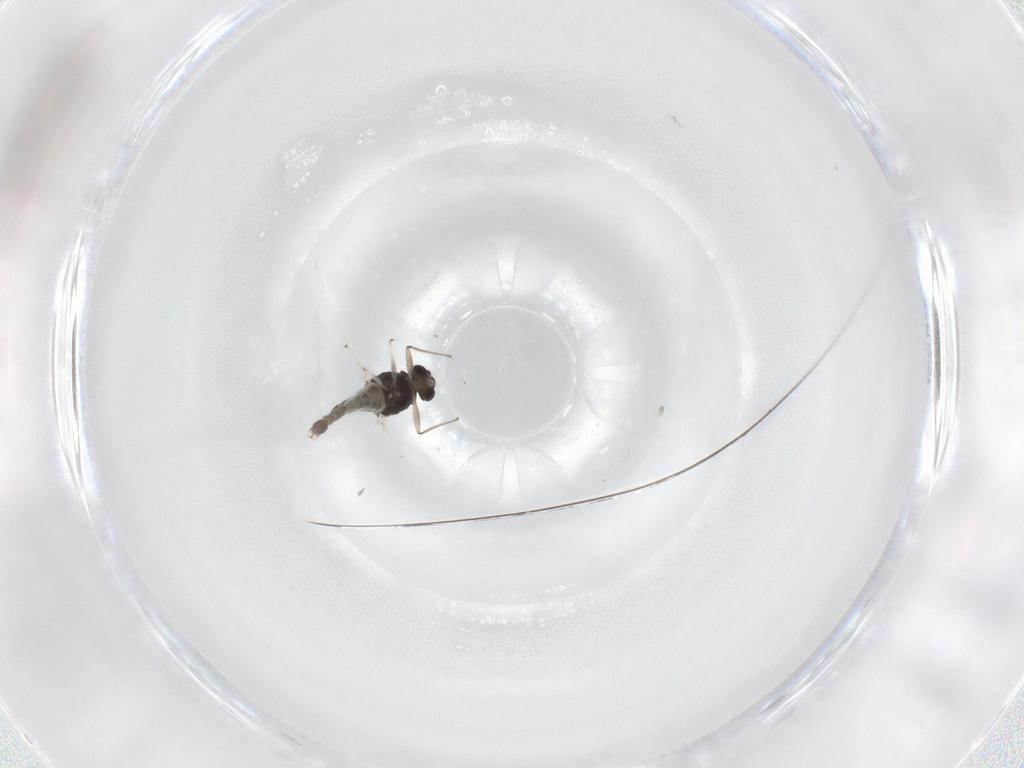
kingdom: Animalia
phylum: Arthropoda
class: Insecta
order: Diptera
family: Chironomidae
